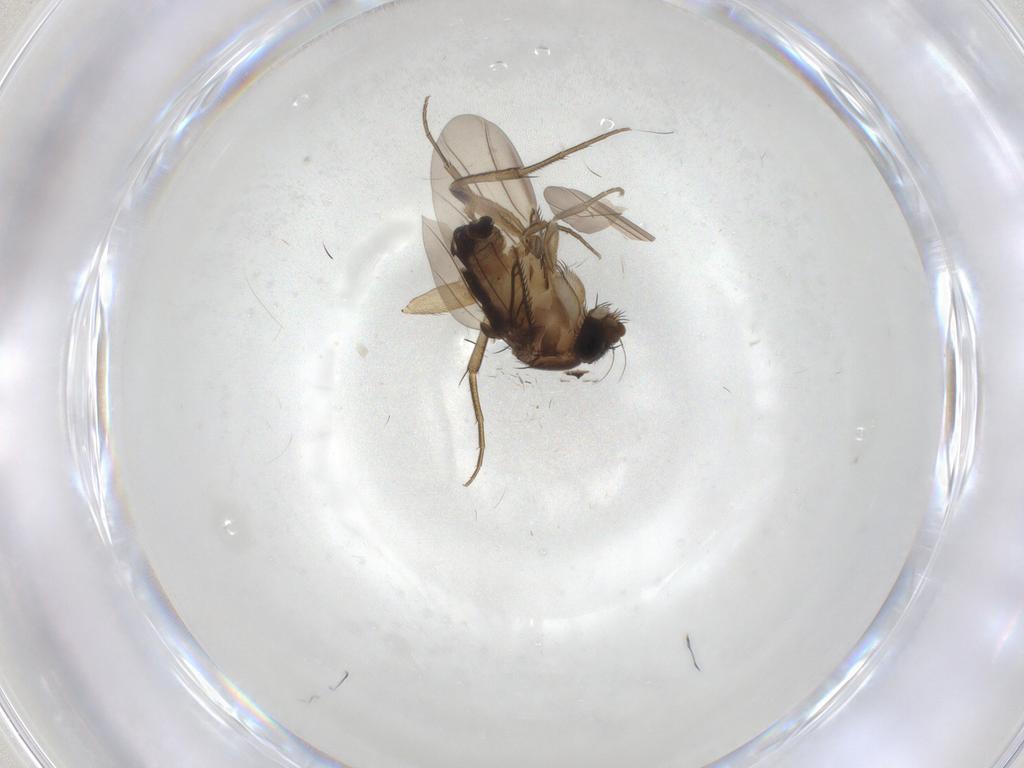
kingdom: Animalia
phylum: Arthropoda
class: Insecta
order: Diptera
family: Phoridae
